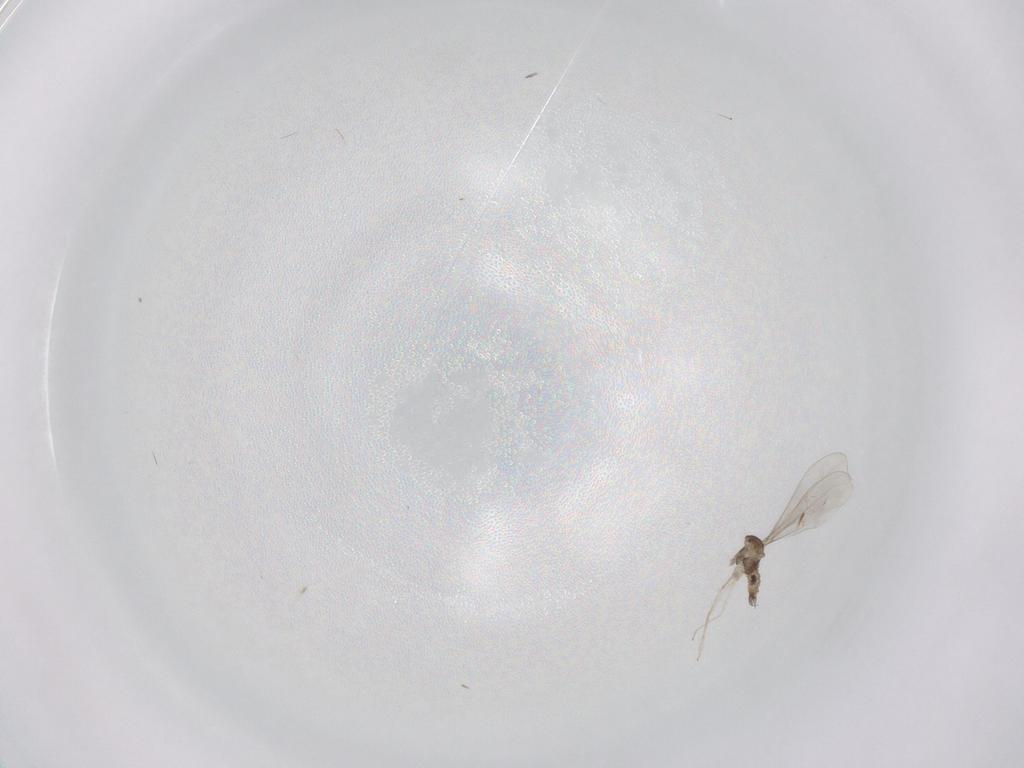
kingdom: Animalia
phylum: Arthropoda
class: Insecta
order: Diptera
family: Cecidomyiidae
